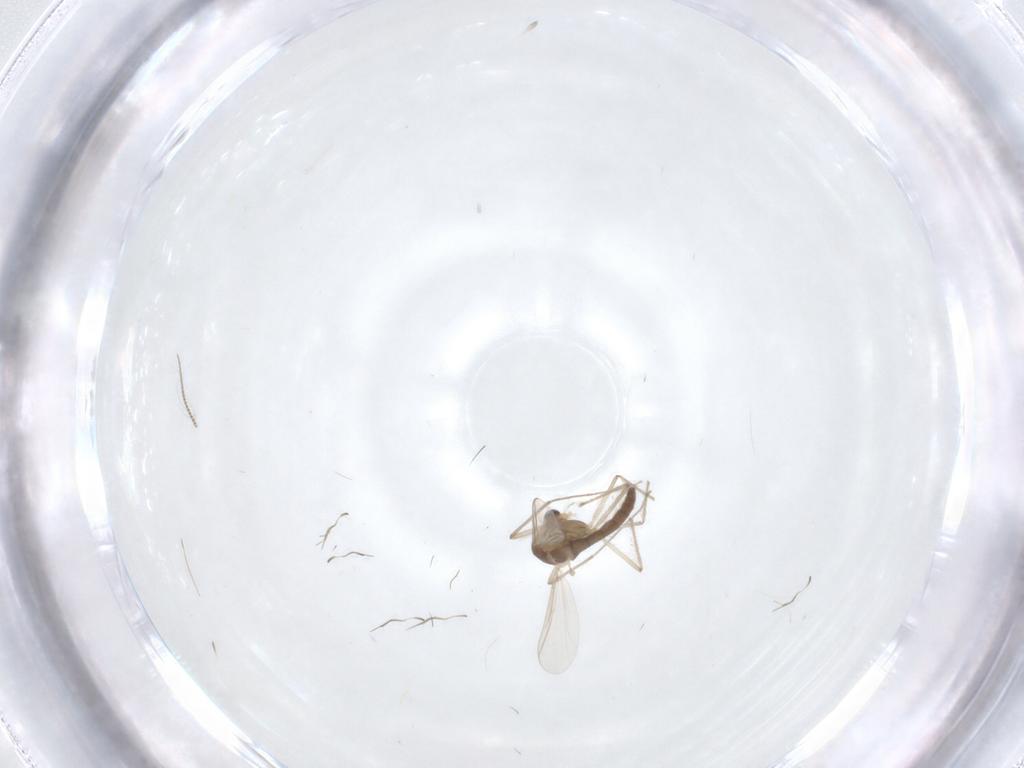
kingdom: Animalia
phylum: Arthropoda
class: Insecta
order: Diptera
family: Chironomidae
